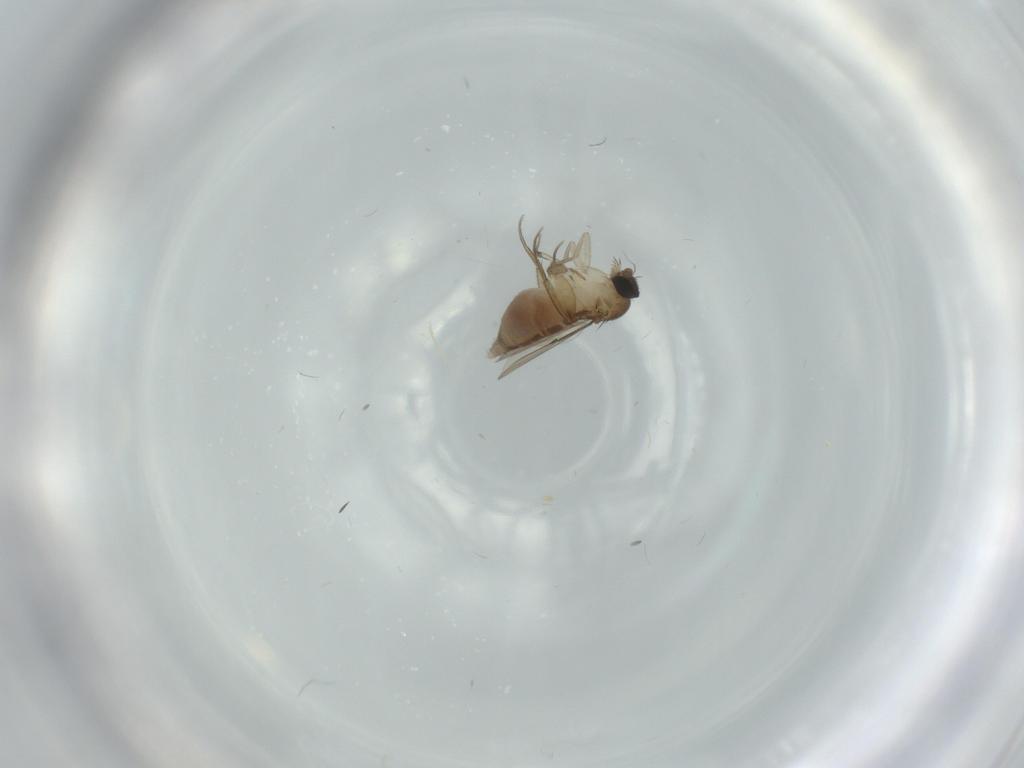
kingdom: Animalia
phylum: Arthropoda
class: Insecta
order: Diptera
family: Phoridae
